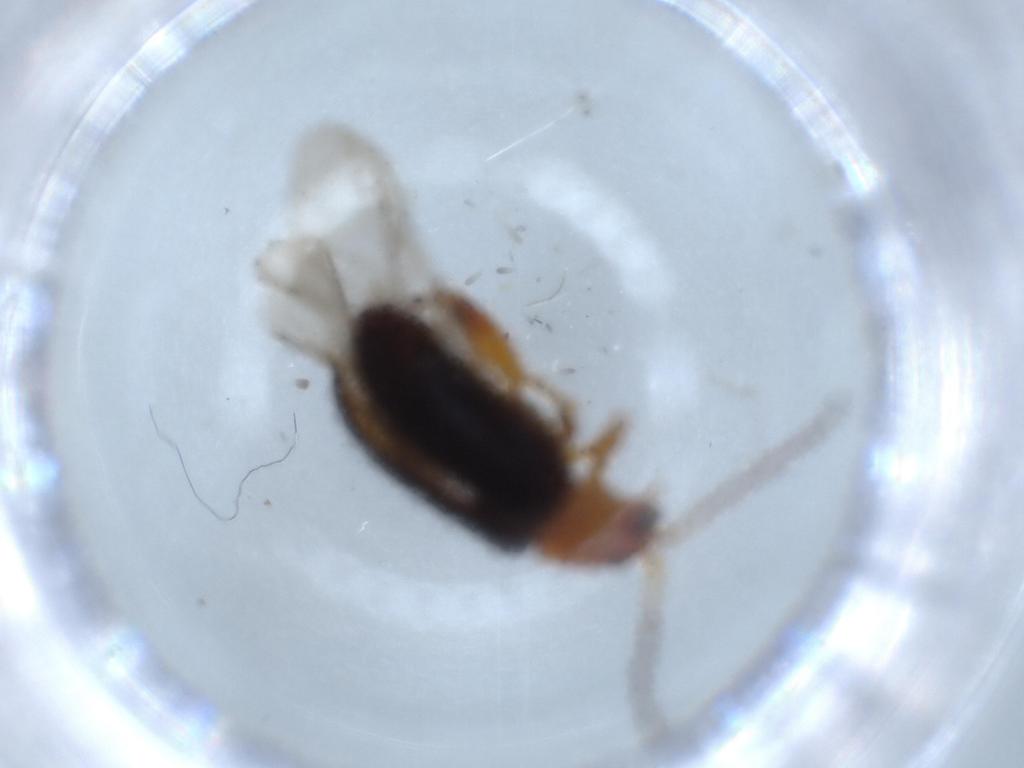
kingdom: Animalia
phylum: Arthropoda
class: Insecta
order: Coleoptera
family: Chrysomelidae
